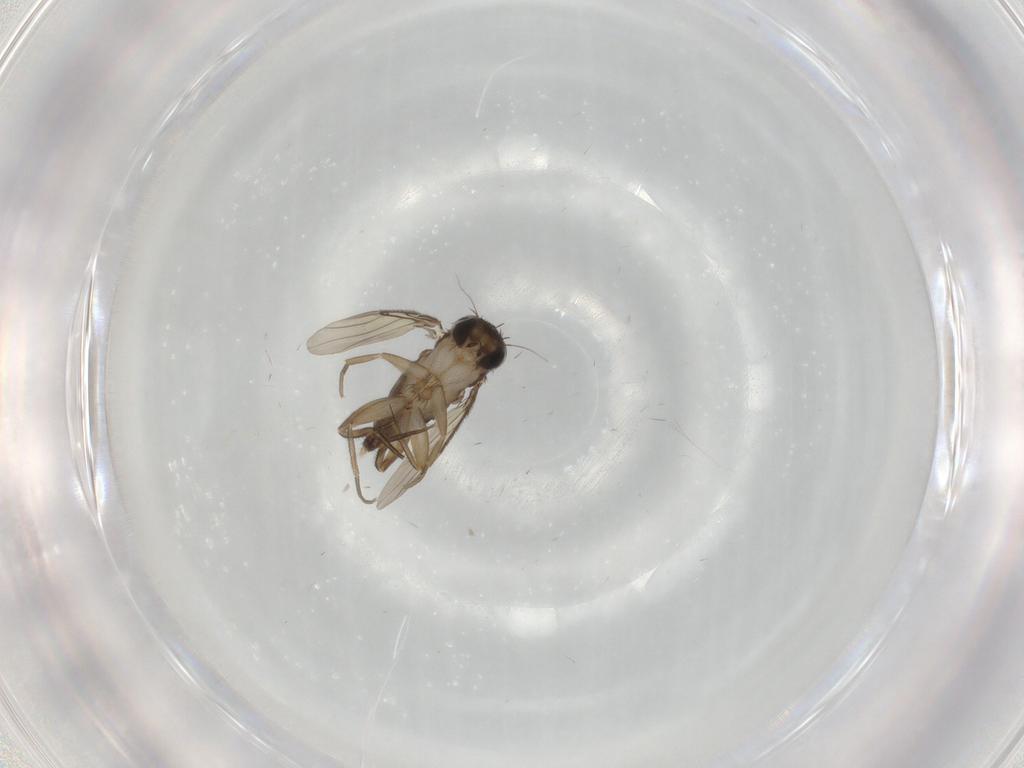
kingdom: Animalia
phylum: Arthropoda
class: Insecta
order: Diptera
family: Phoridae
